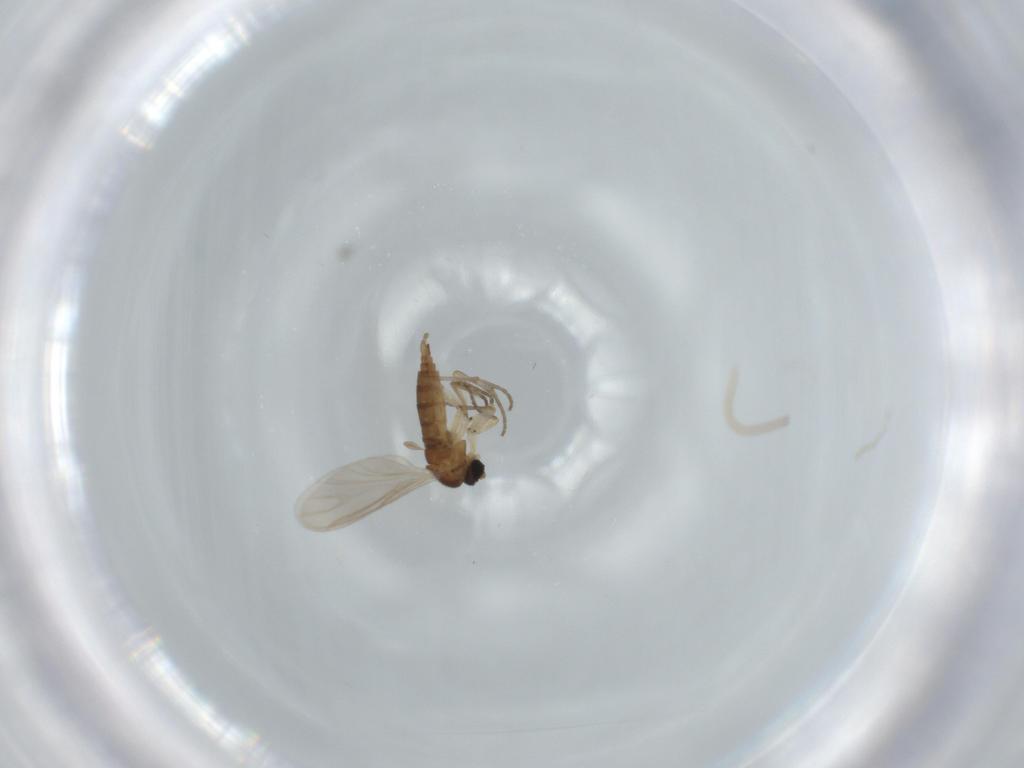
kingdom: Animalia
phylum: Arthropoda
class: Insecta
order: Diptera
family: Sciaridae
